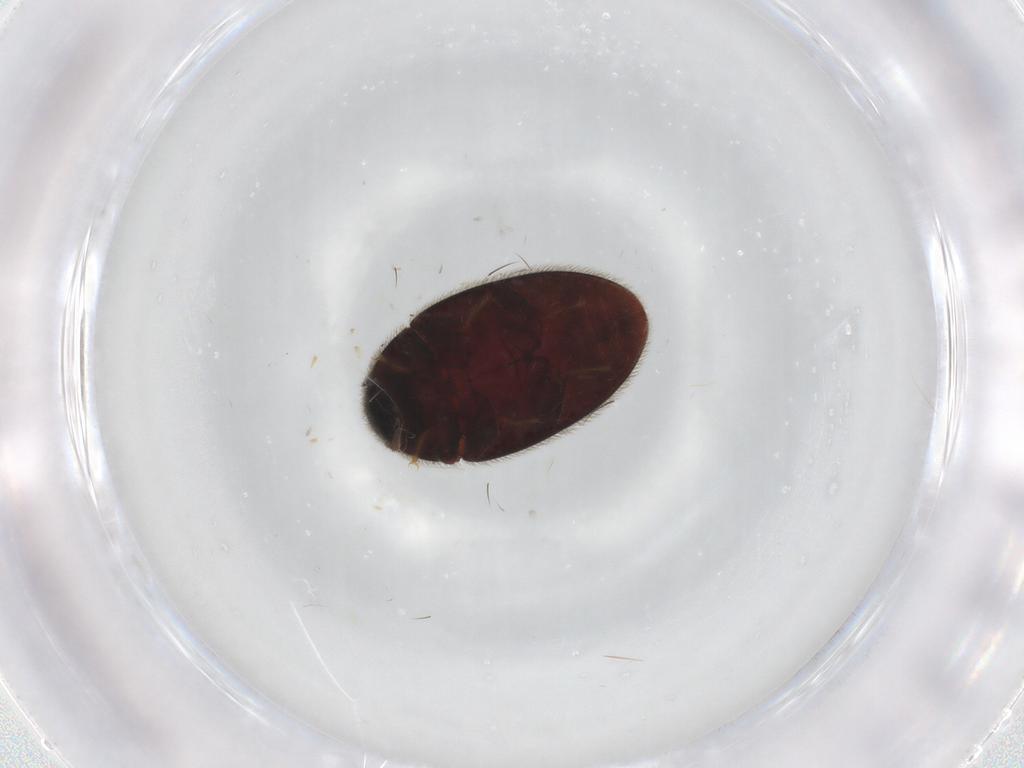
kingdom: Animalia
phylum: Arthropoda
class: Insecta
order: Coleoptera
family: Limnichidae
